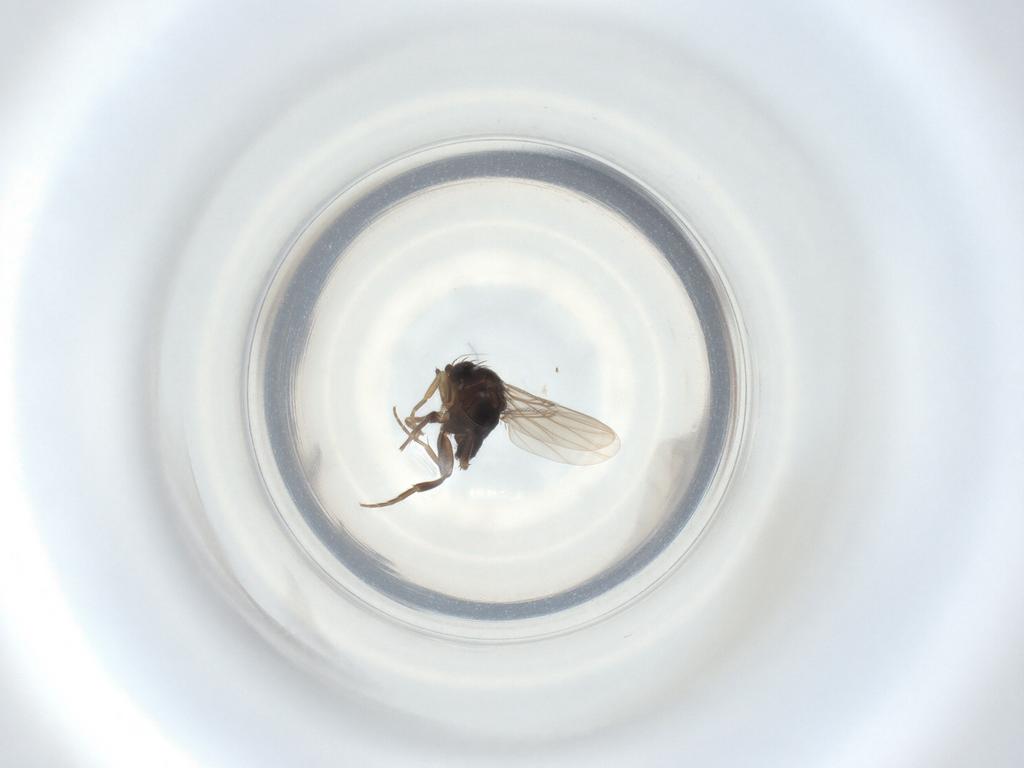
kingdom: Animalia
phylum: Arthropoda
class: Insecta
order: Diptera
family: Phoridae
